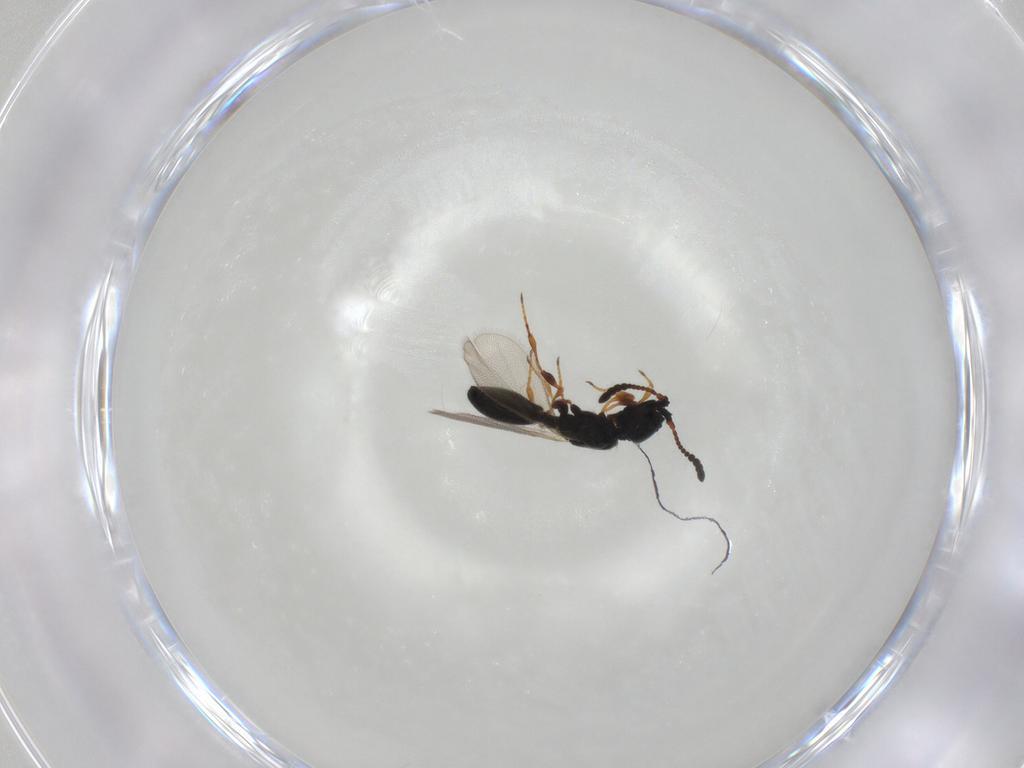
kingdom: Animalia
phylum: Arthropoda
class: Insecta
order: Hymenoptera
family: Diapriidae
